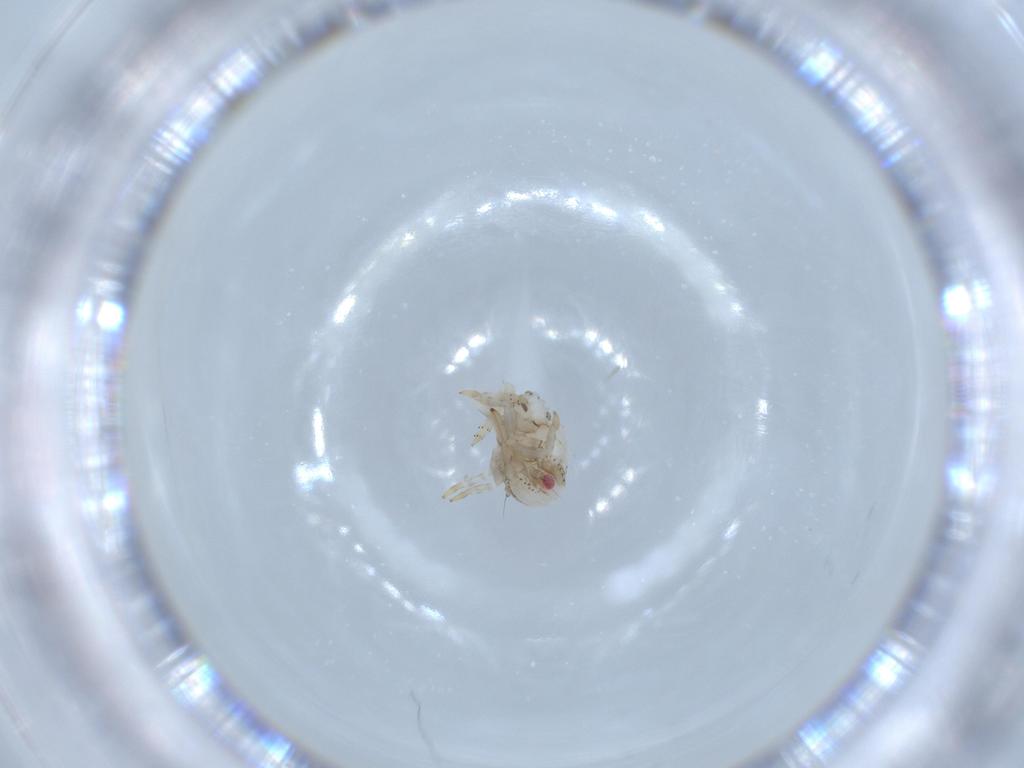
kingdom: Animalia
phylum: Arthropoda
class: Insecta
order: Hemiptera
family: Acanaloniidae
